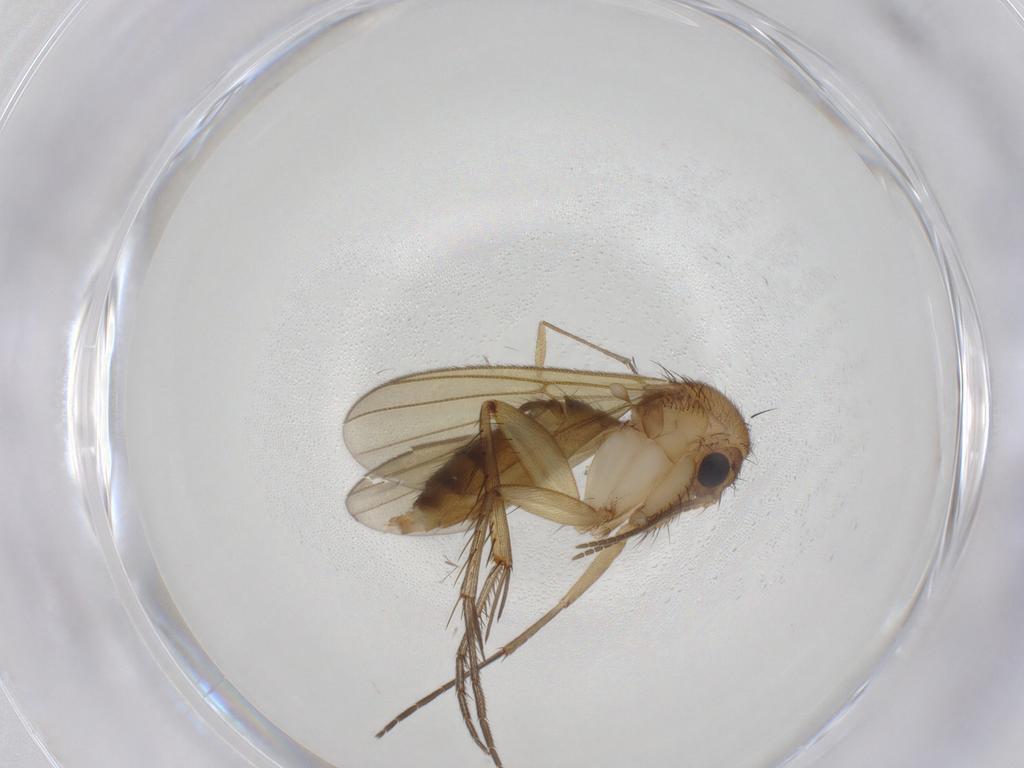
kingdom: Animalia
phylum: Arthropoda
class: Insecta
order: Diptera
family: Mycetophilidae
